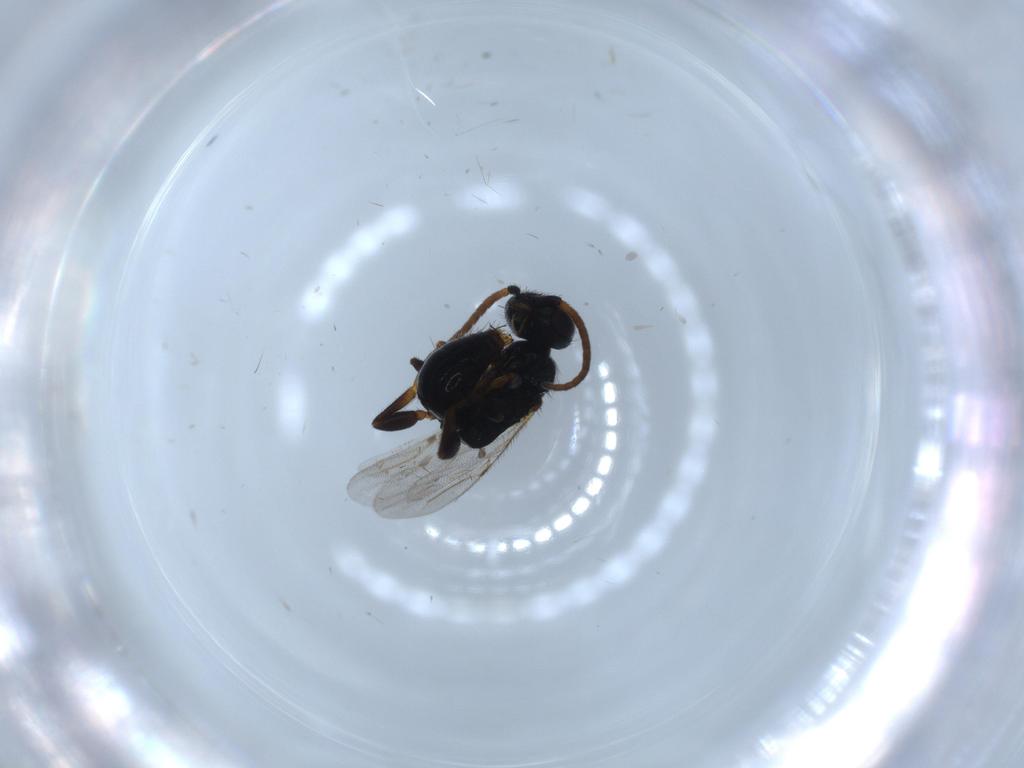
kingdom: Animalia
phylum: Arthropoda
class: Insecta
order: Hymenoptera
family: Bethylidae
